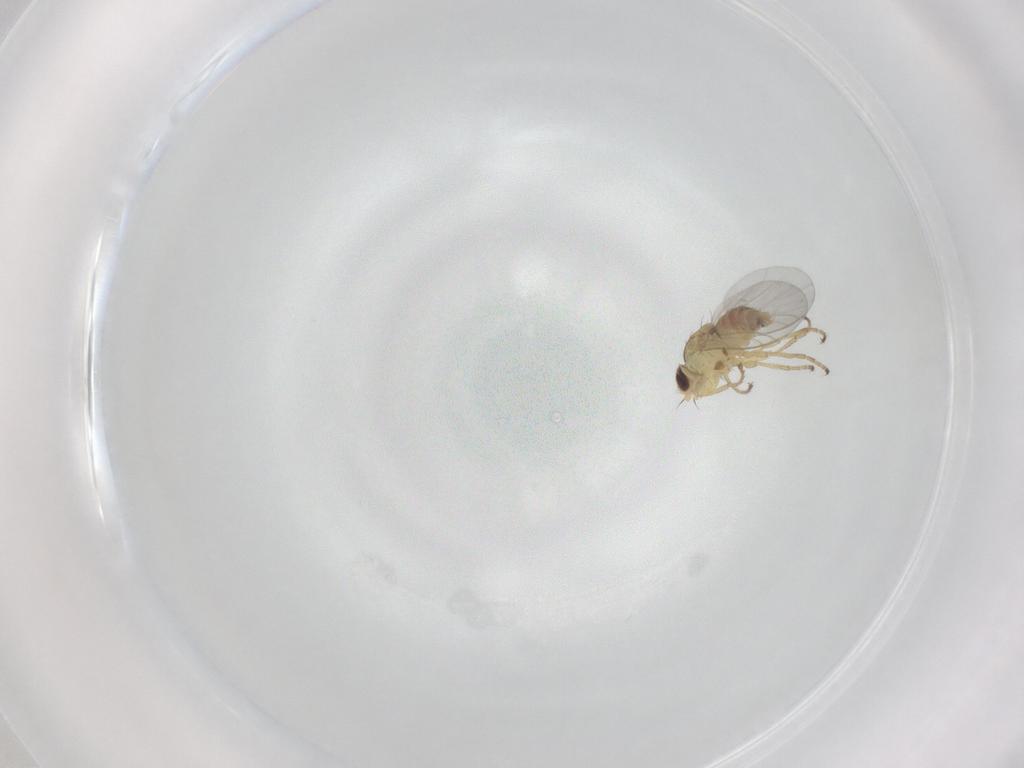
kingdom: Animalia
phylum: Arthropoda
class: Insecta
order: Diptera
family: Agromyzidae
